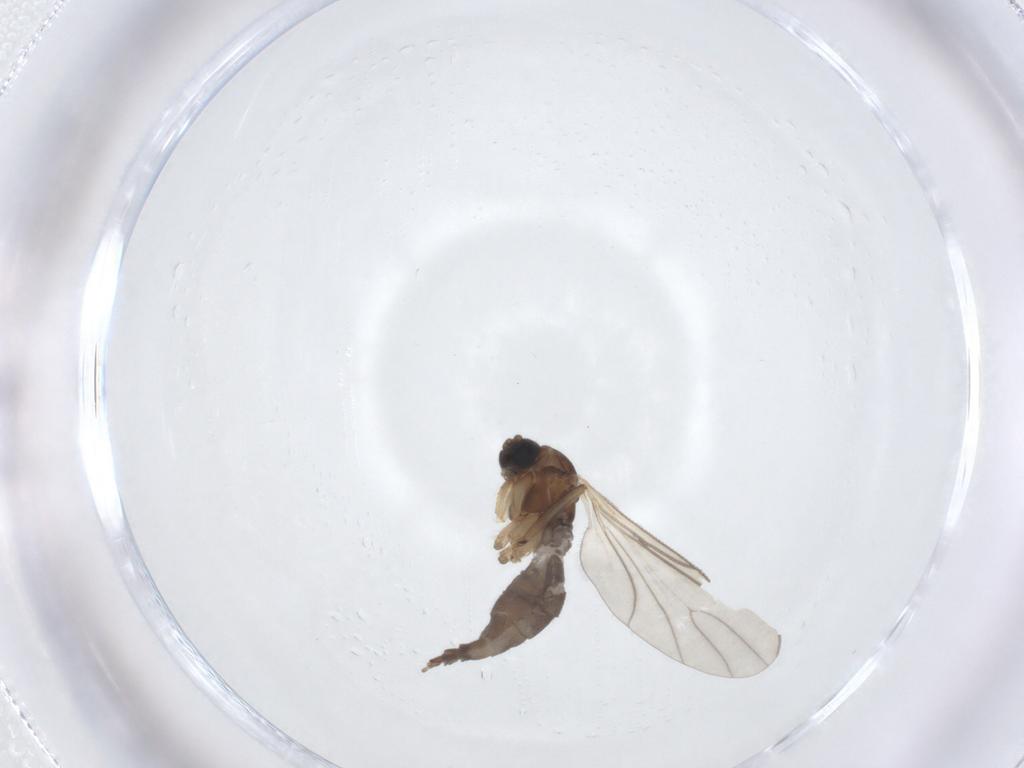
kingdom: Animalia
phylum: Arthropoda
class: Insecta
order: Diptera
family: Sciaridae
